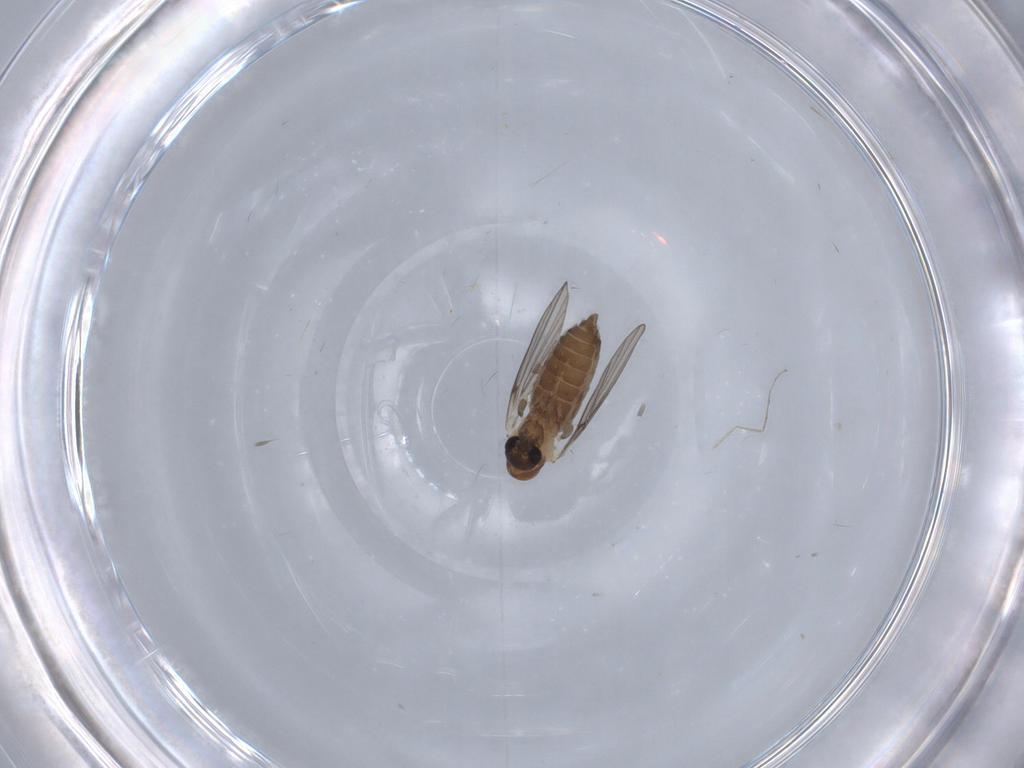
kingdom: Animalia
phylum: Arthropoda
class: Insecta
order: Diptera
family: Psychodidae
